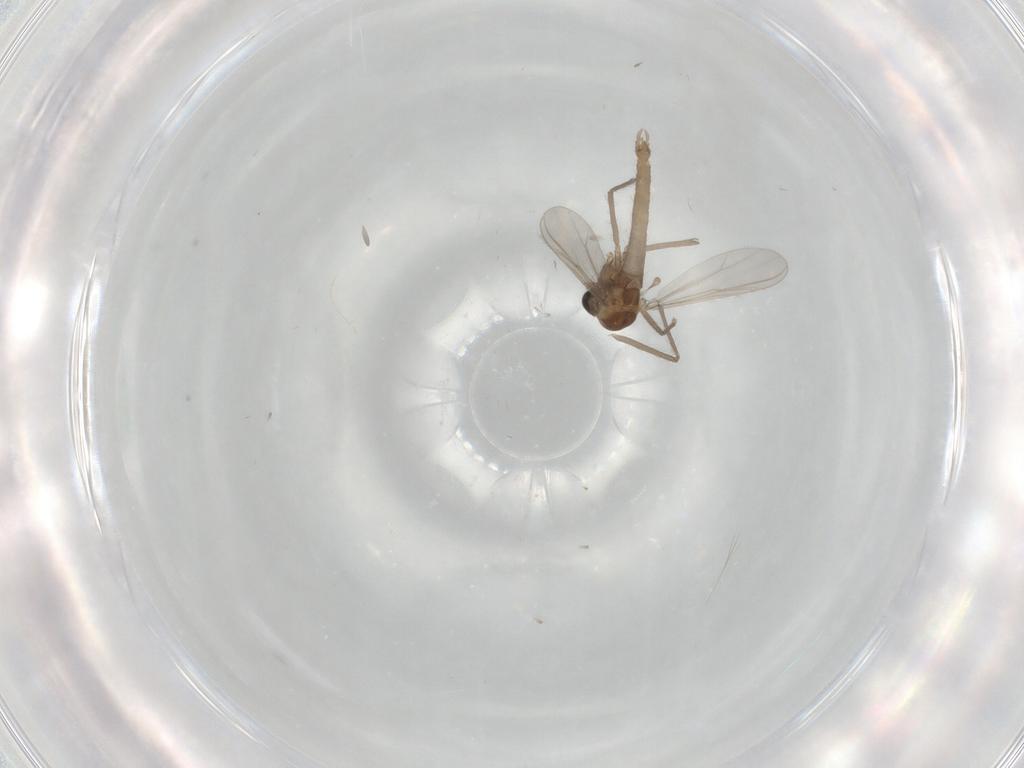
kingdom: Animalia
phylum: Arthropoda
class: Insecta
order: Diptera
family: Chironomidae
